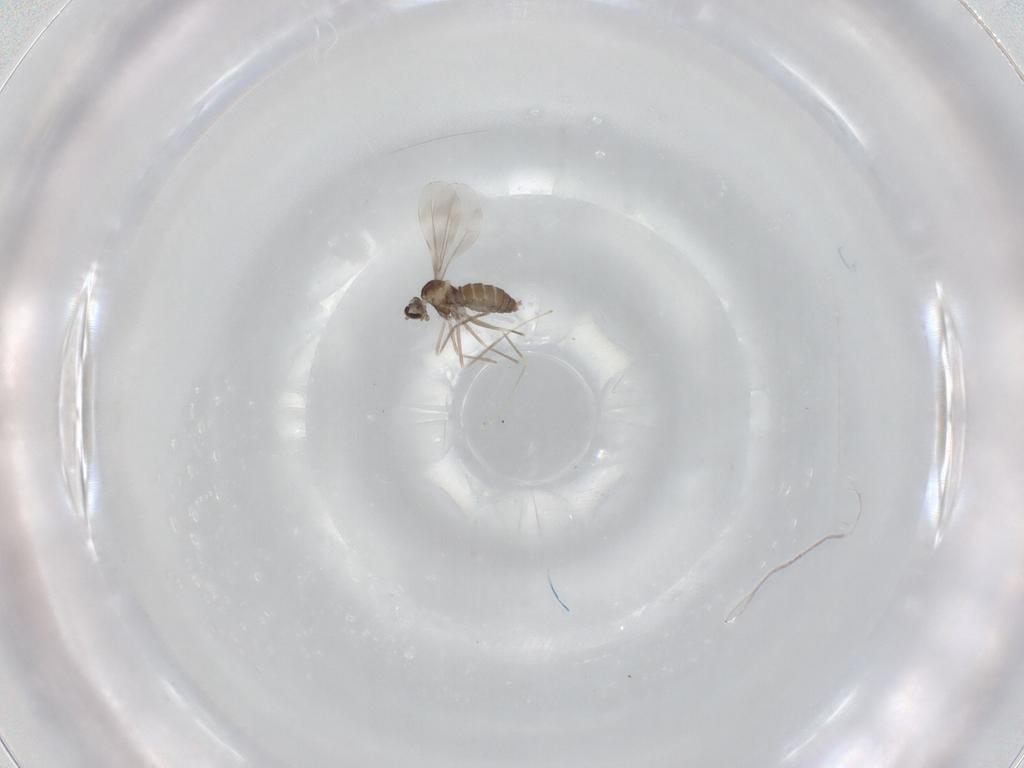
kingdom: Animalia
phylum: Arthropoda
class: Insecta
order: Diptera
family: Cecidomyiidae
